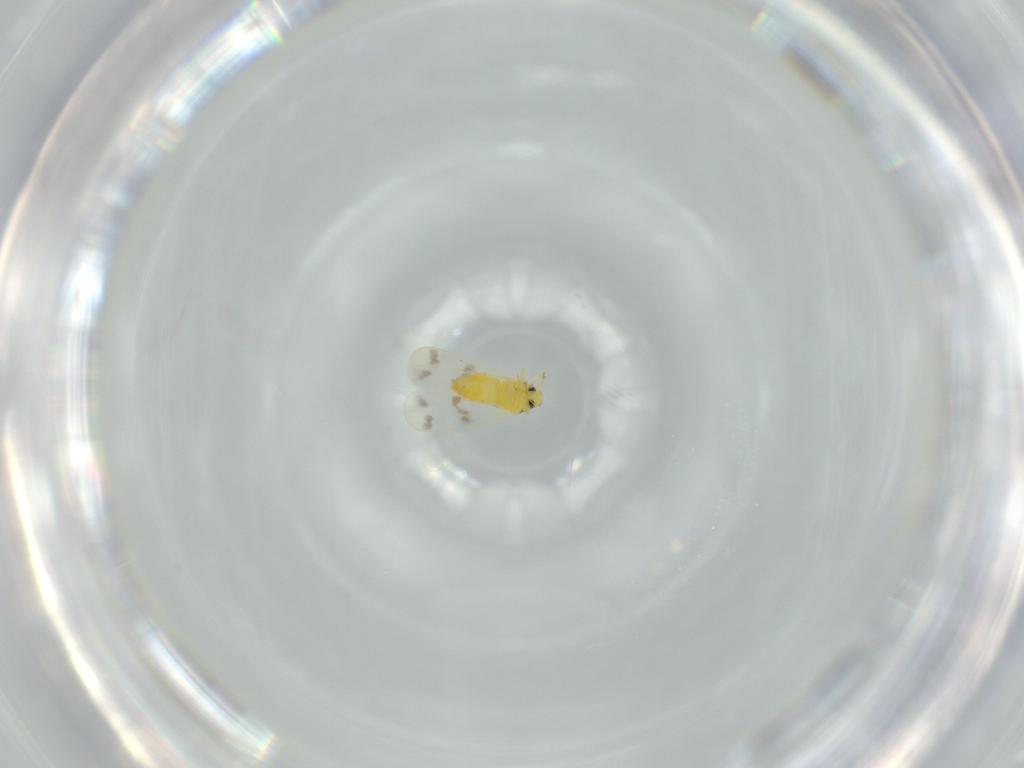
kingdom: Animalia
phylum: Arthropoda
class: Insecta
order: Hemiptera
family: Aleyrodidae
